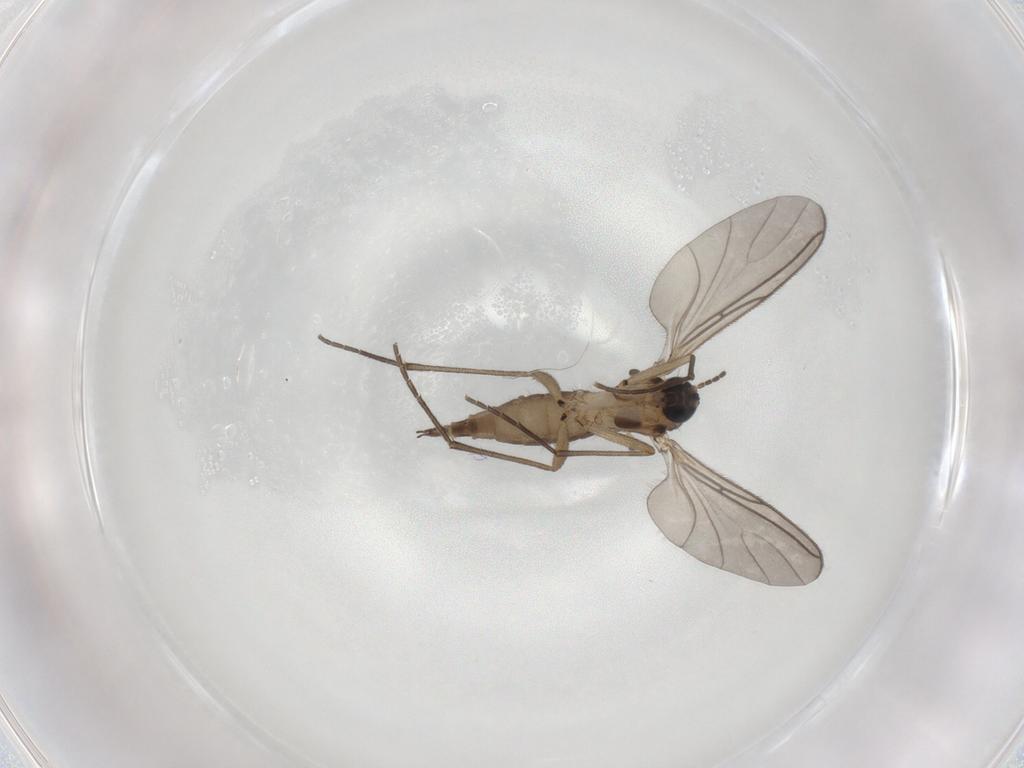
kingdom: Animalia
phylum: Arthropoda
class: Insecta
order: Diptera
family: Sciaridae
